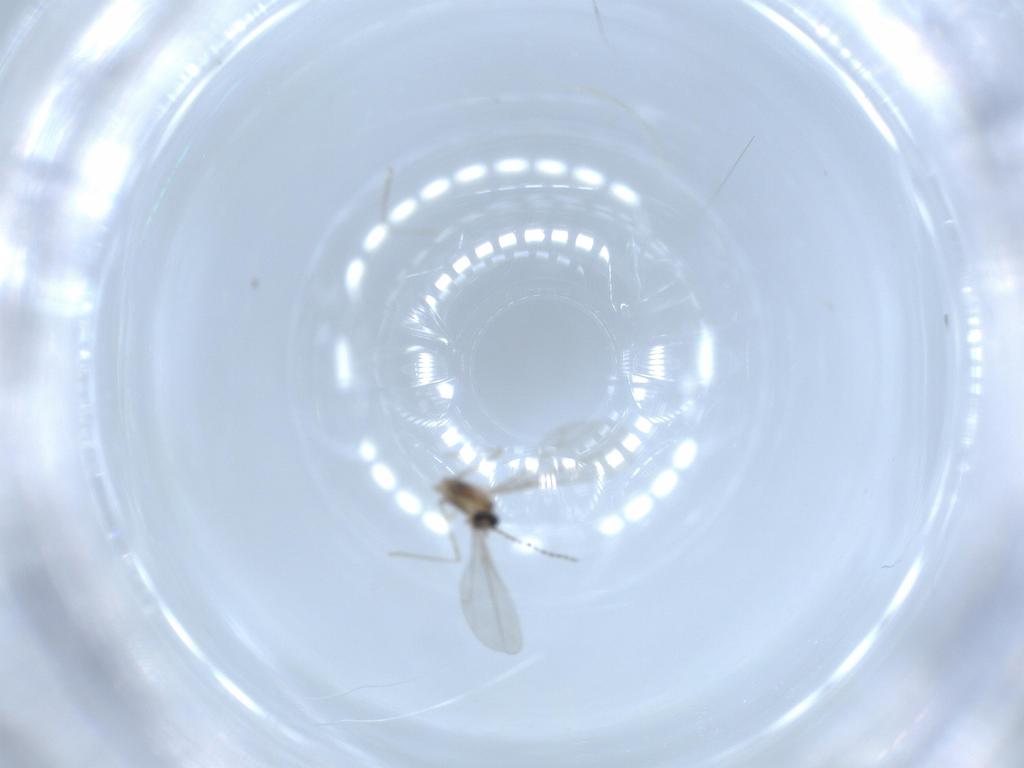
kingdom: Animalia
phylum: Arthropoda
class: Insecta
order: Diptera
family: Cecidomyiidae
